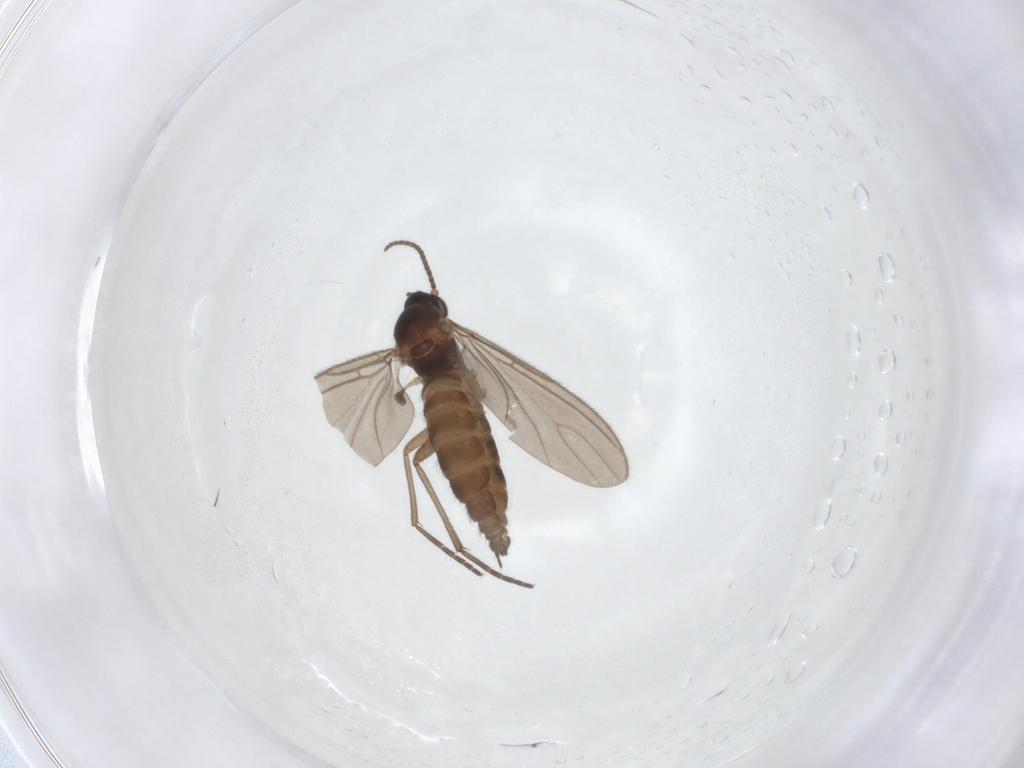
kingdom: Animalia
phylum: Arthropoda
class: Insecta
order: Diptera
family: Sciaridae
